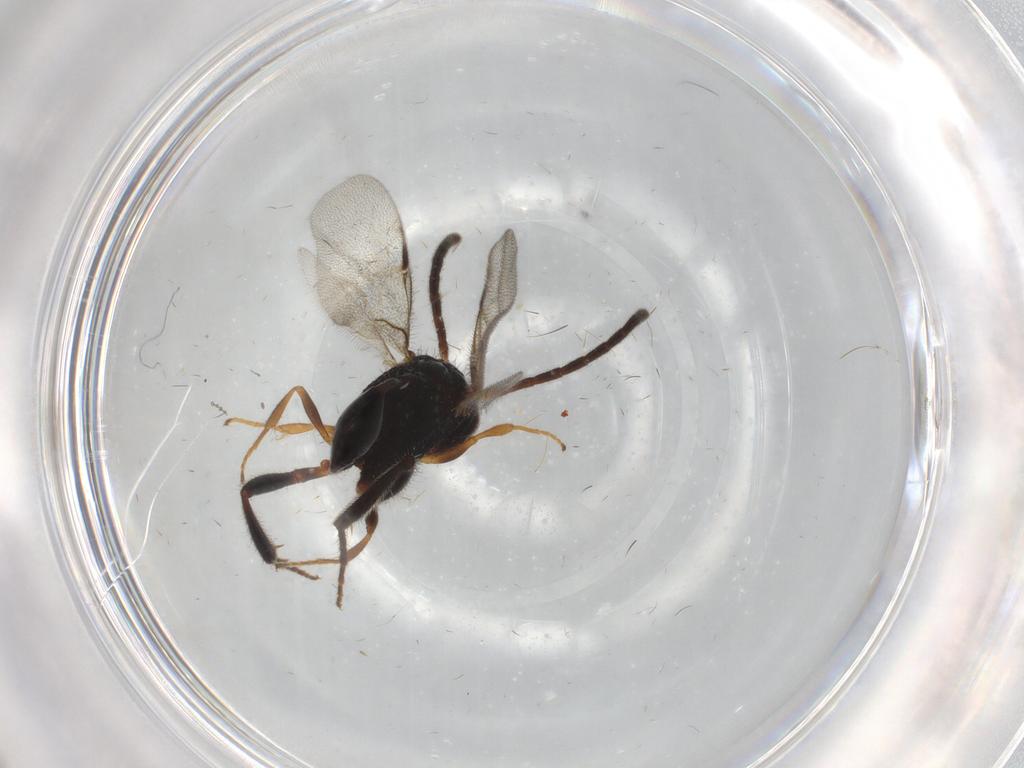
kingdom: Animalia
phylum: Arthropoda
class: Insecta
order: Hymenoptera
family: Evaniidae
